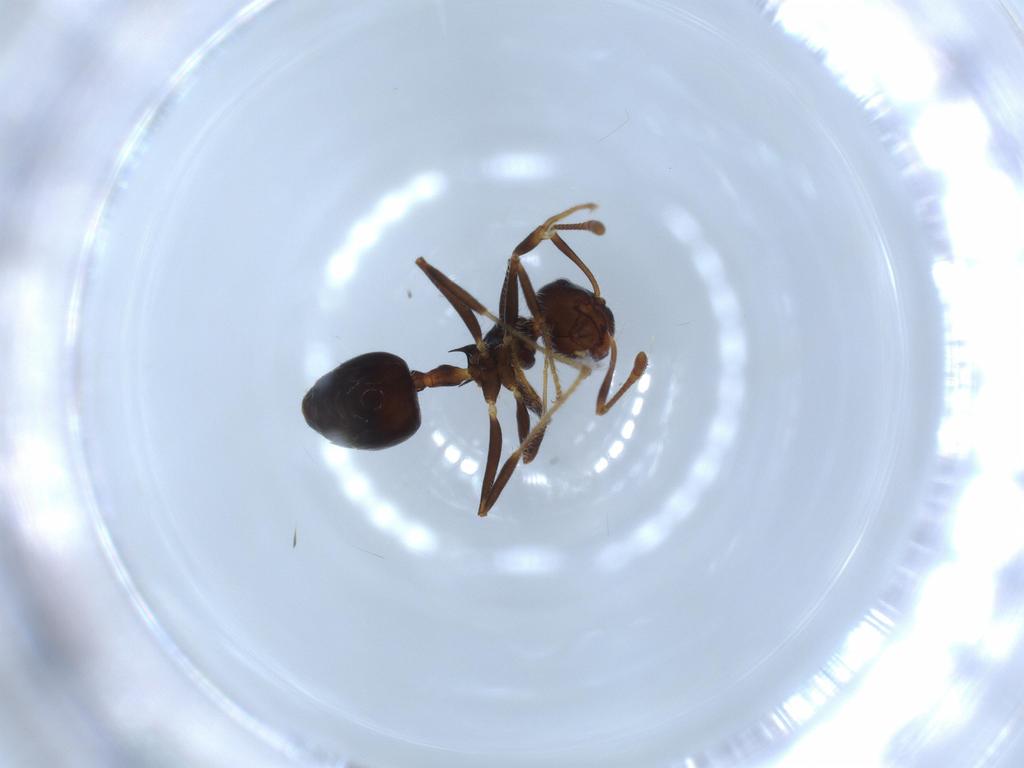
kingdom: Animalia
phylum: Arthropoda
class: Insecta
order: Hymenoptera
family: Formicidae
